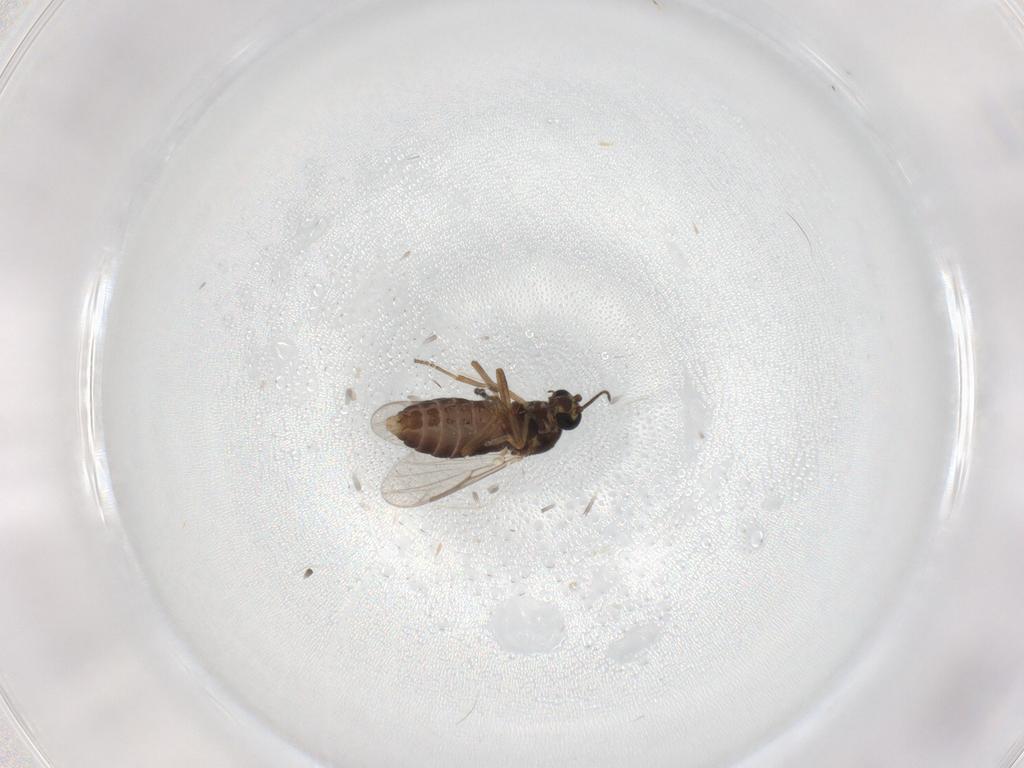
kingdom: Animalia
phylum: Arthropoda
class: Insecta
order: Diptera
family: Ceratopogonidae
